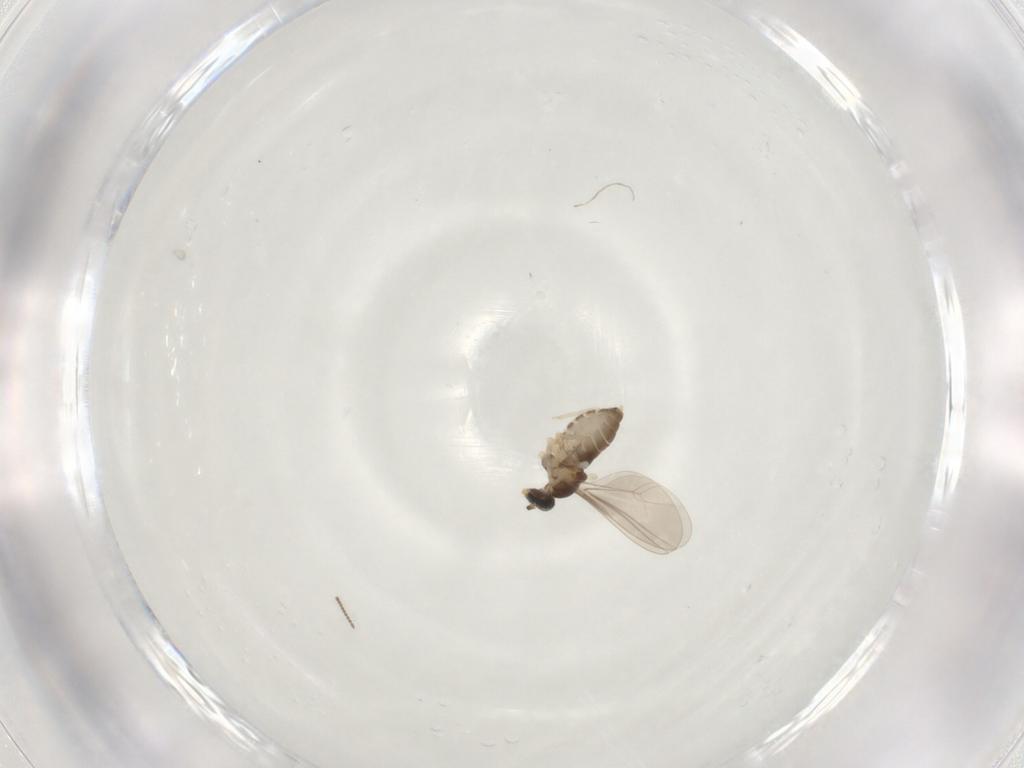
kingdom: Animalia
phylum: Arthropoda
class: Insecta
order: Diptera
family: Cecidomyiidae
